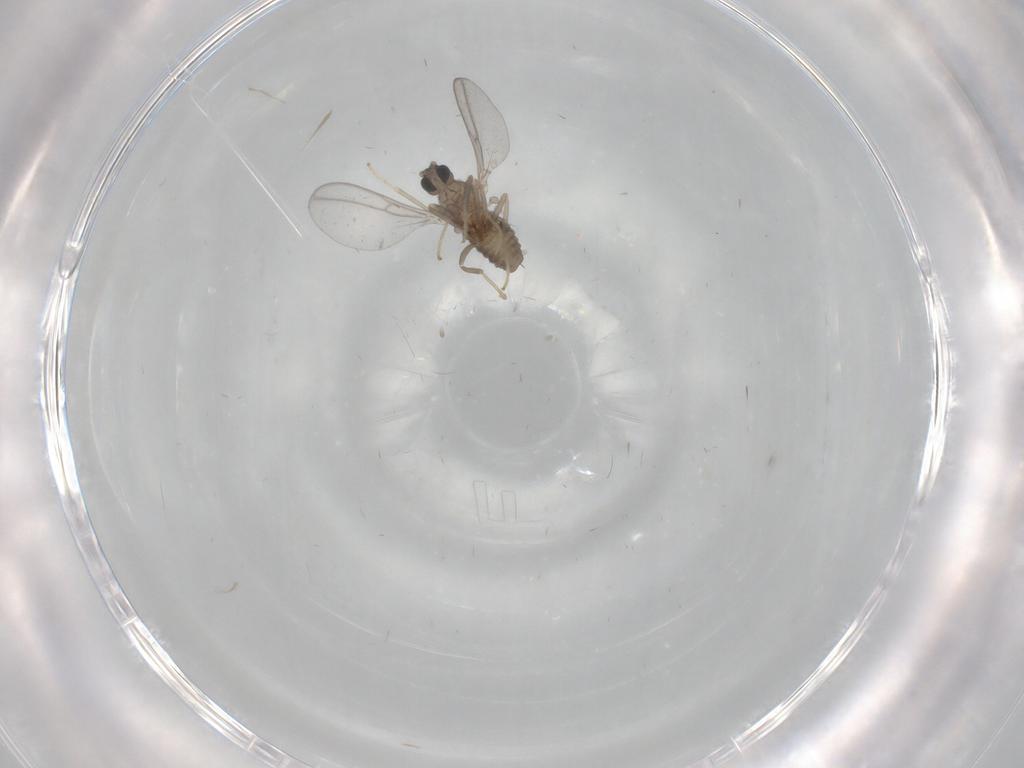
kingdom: Animalia
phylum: Arthropoda
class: Insecta
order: Diptera
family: Cecidomyiidae
